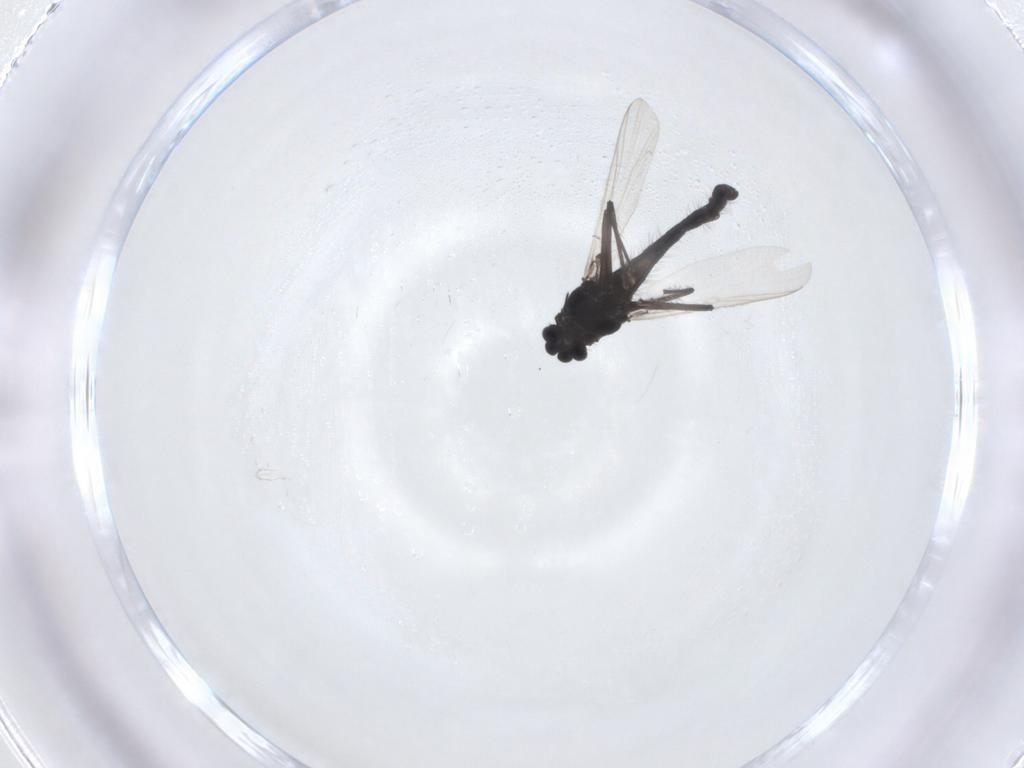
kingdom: Animalia
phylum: Arthropoda
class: Insecta
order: Diptera
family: Chironomidae
